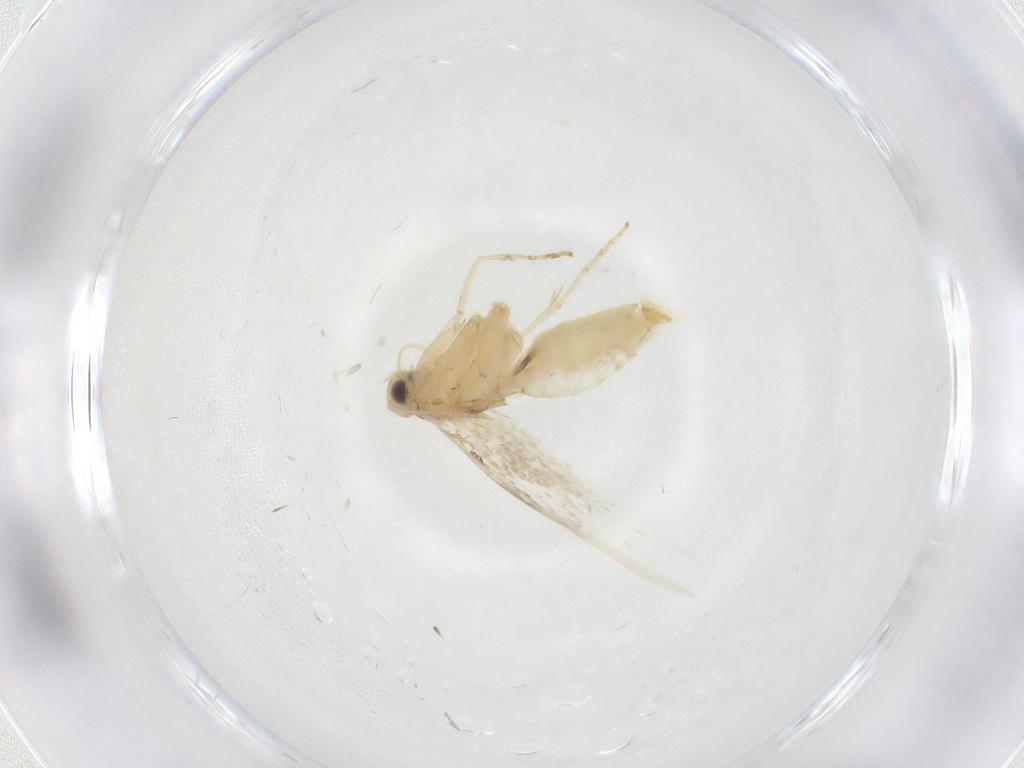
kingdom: Animalia
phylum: Arthropoda
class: Insecta
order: Lepidoptera
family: Gracillariidae
